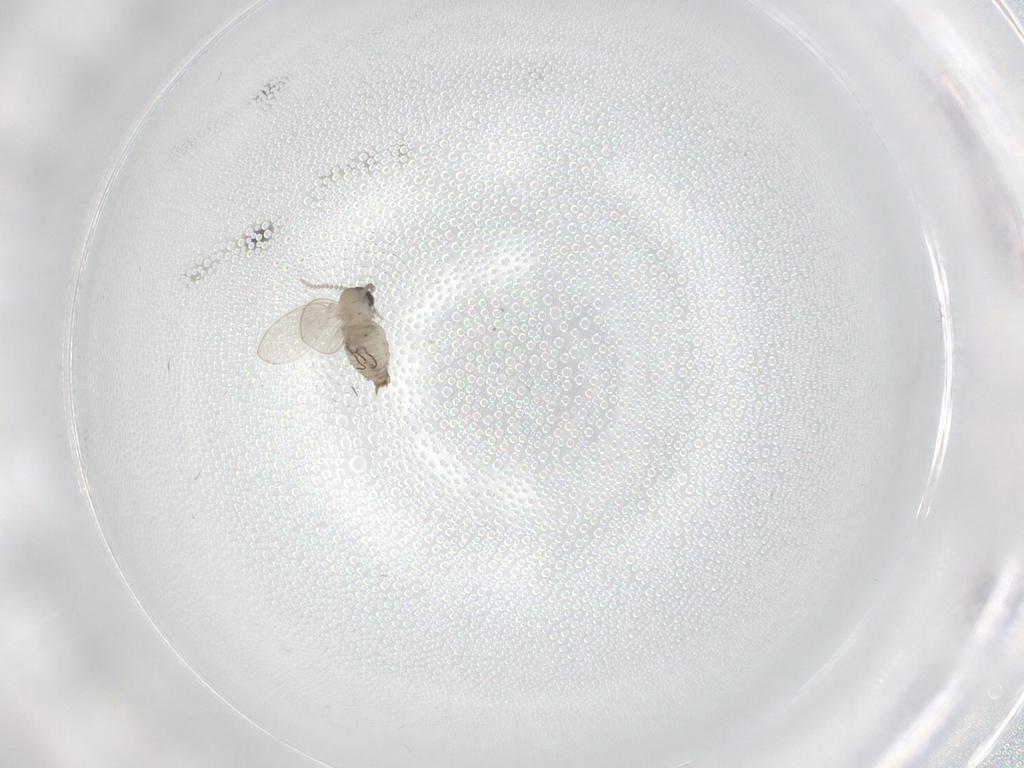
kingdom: Animalia
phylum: Arthropoda
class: Insecta
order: Diptera
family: Psychodidae
